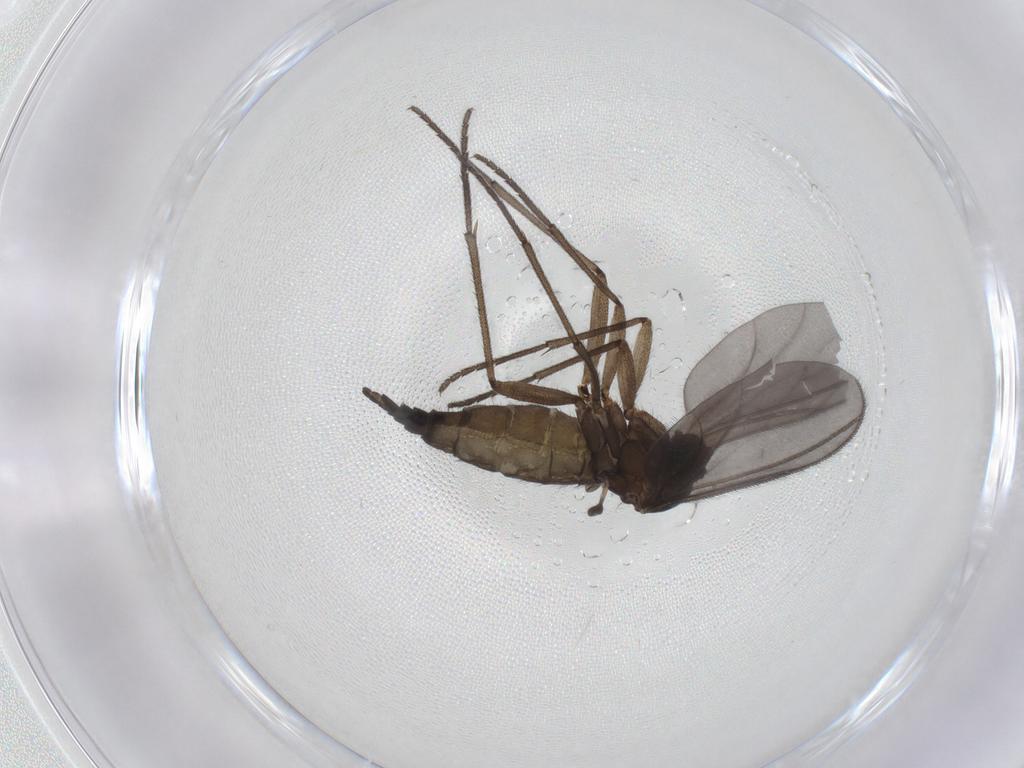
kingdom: Animalia
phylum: Arthropoda
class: Insecta
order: Diptera
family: Sciaridae
